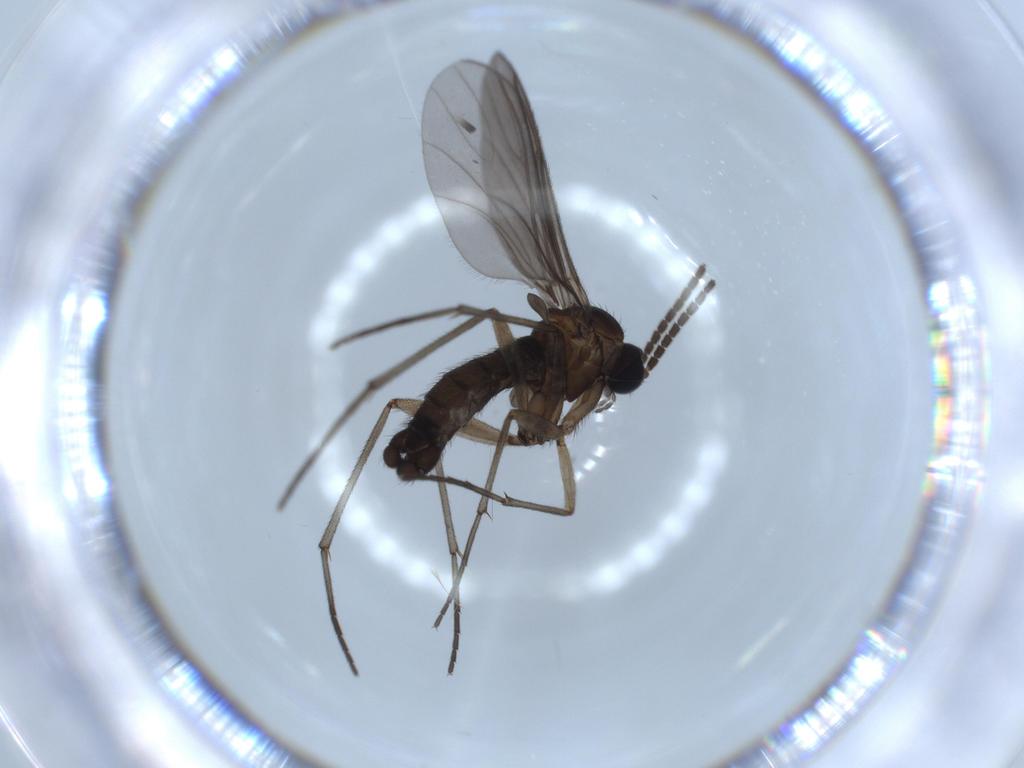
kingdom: Animalia
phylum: Arthropoda
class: Insecta
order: Diptera
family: Sciaridae
